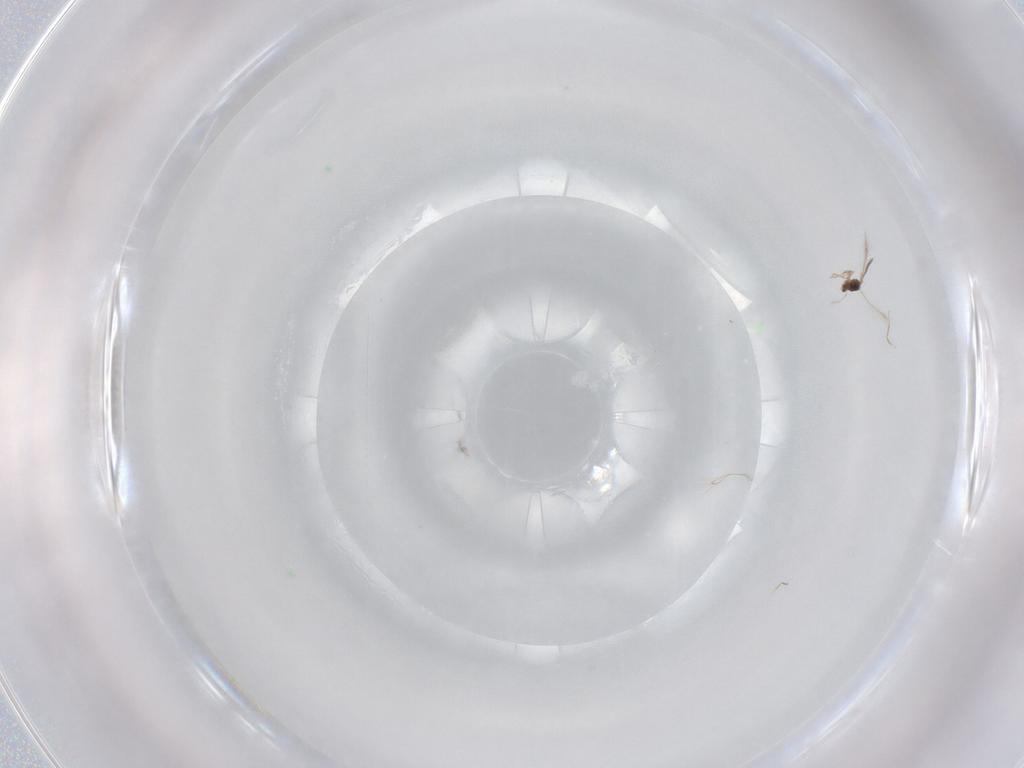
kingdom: Animalia
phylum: Arthropoda
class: Insecta
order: Hymenoptera
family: Mymaridae
